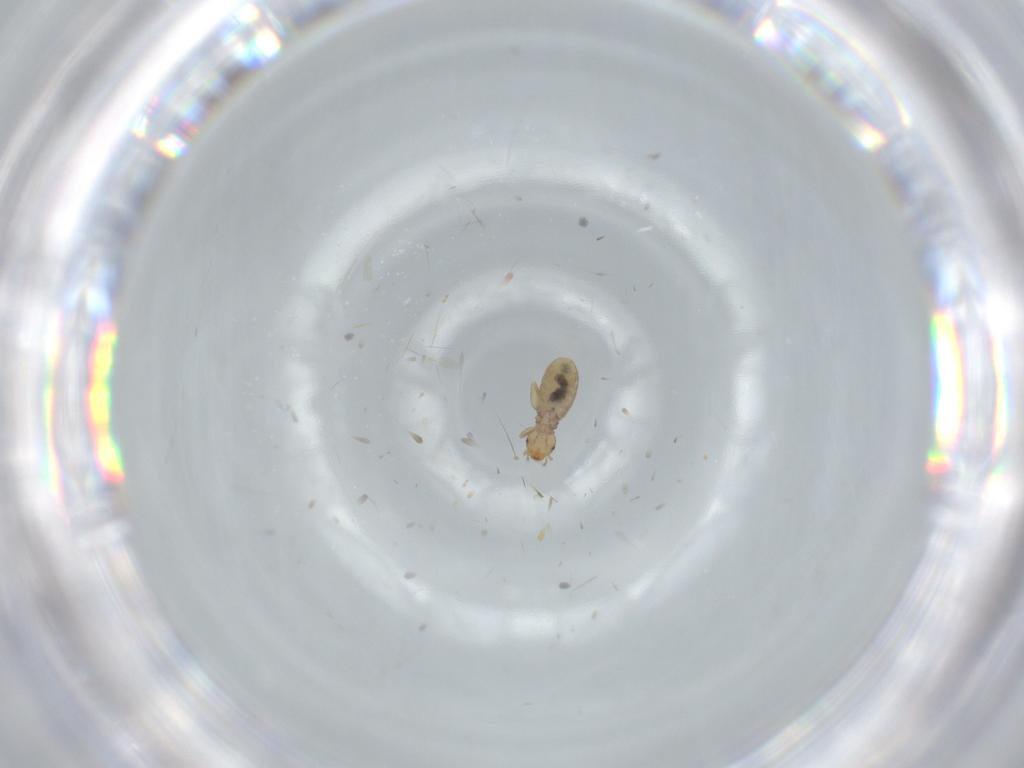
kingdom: Animalia
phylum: Arthropoda
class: Insecta
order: Psocodea
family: Liposcelididae
